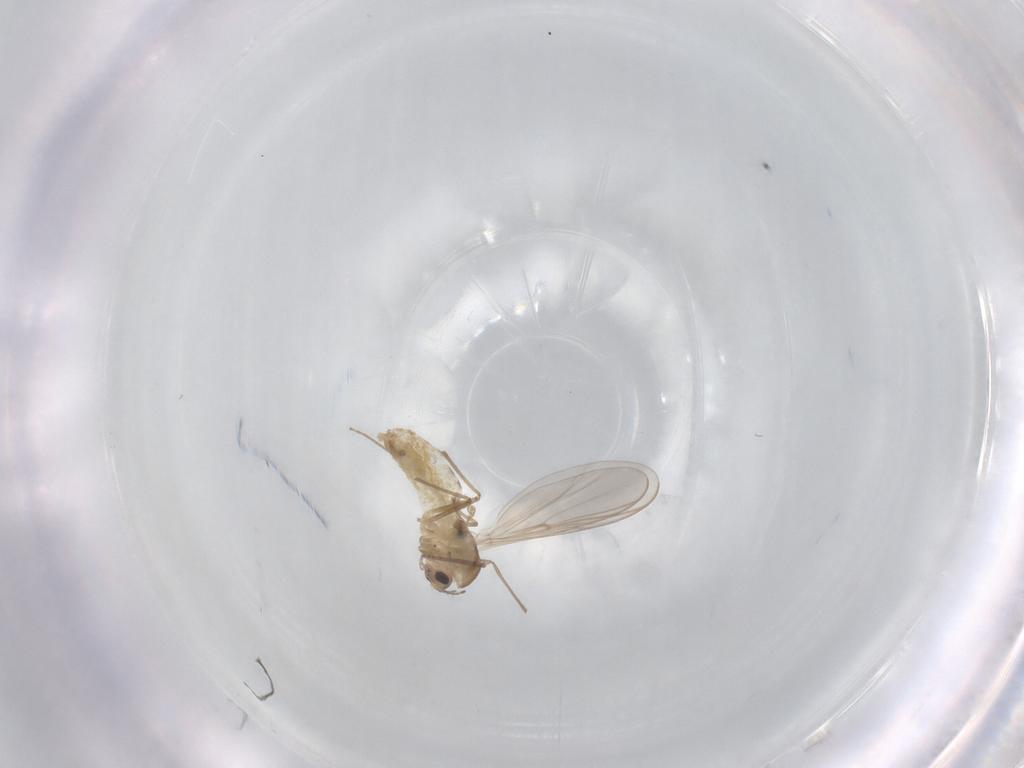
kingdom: Animalia
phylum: Arthropoda
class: Insecta
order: Diptera
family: Chironomidae
